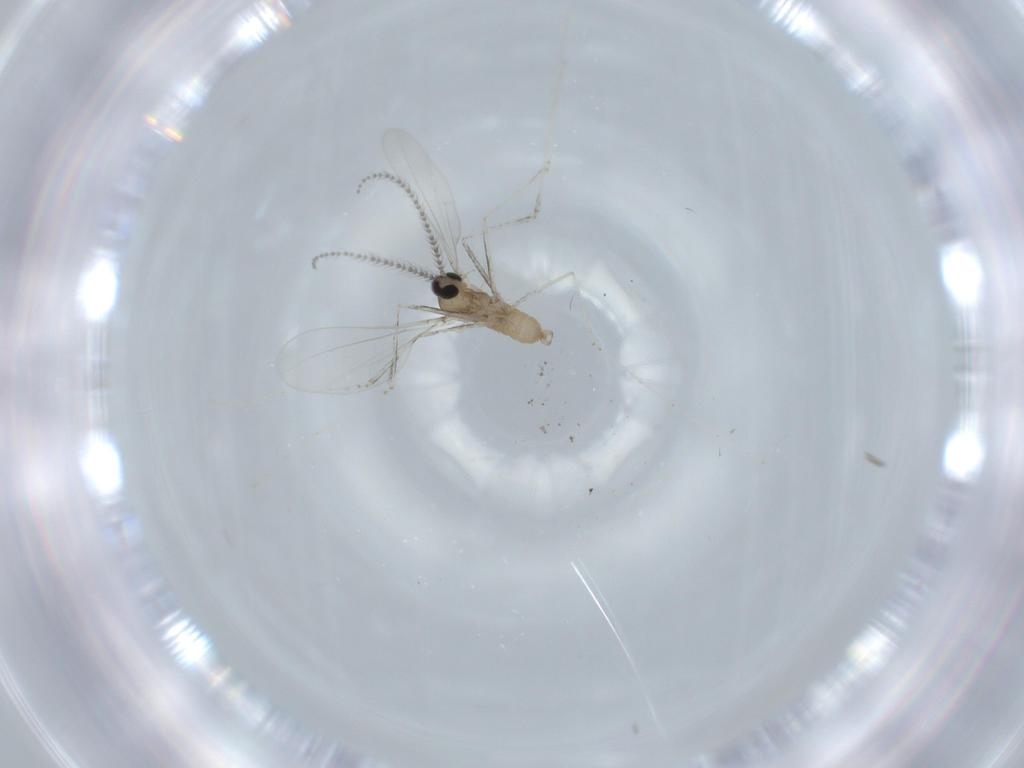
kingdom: Animalia
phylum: Arthropoda
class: Insecta
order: Diptera
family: Cecidomyiidae
